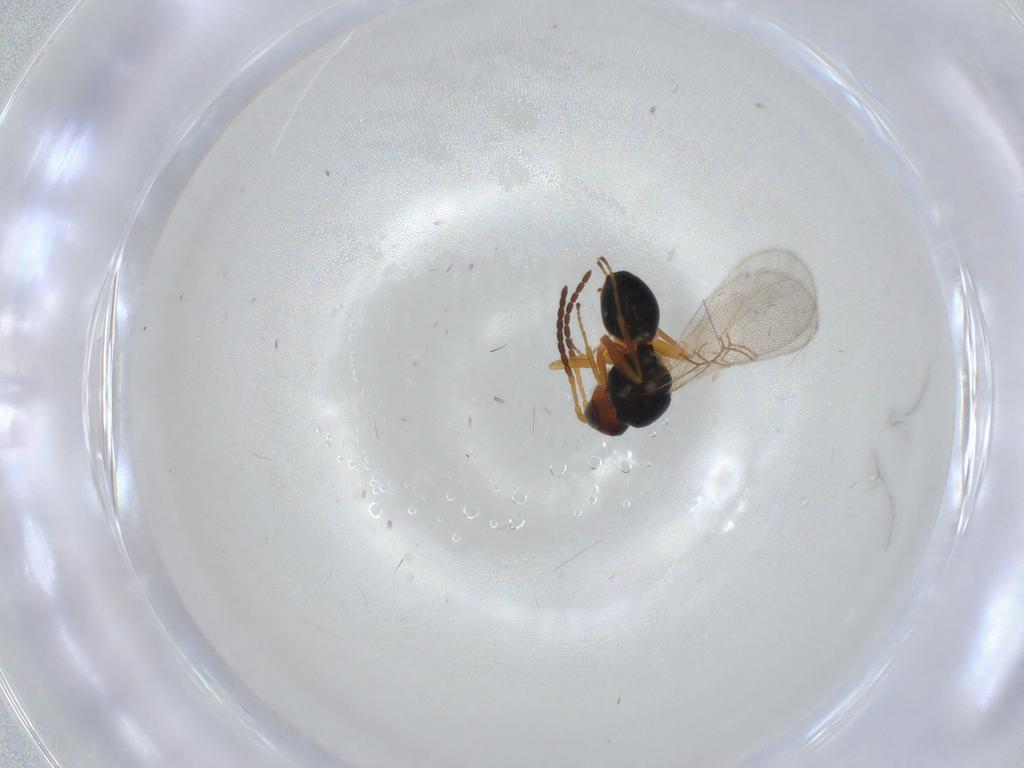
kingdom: Animalia
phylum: Arthropoda
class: Insecta
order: Hymenoptera
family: Figitidae
